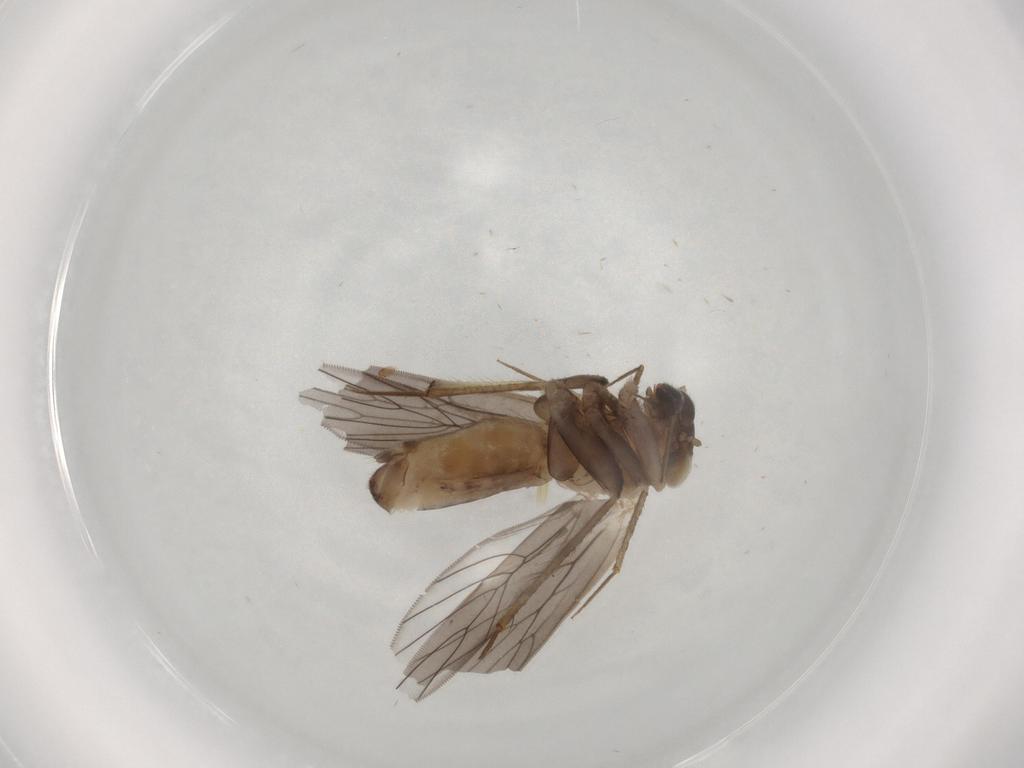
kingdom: Animalia
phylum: Arthropoda
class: Insecta
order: Psocodea
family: Lepidopsocidae
